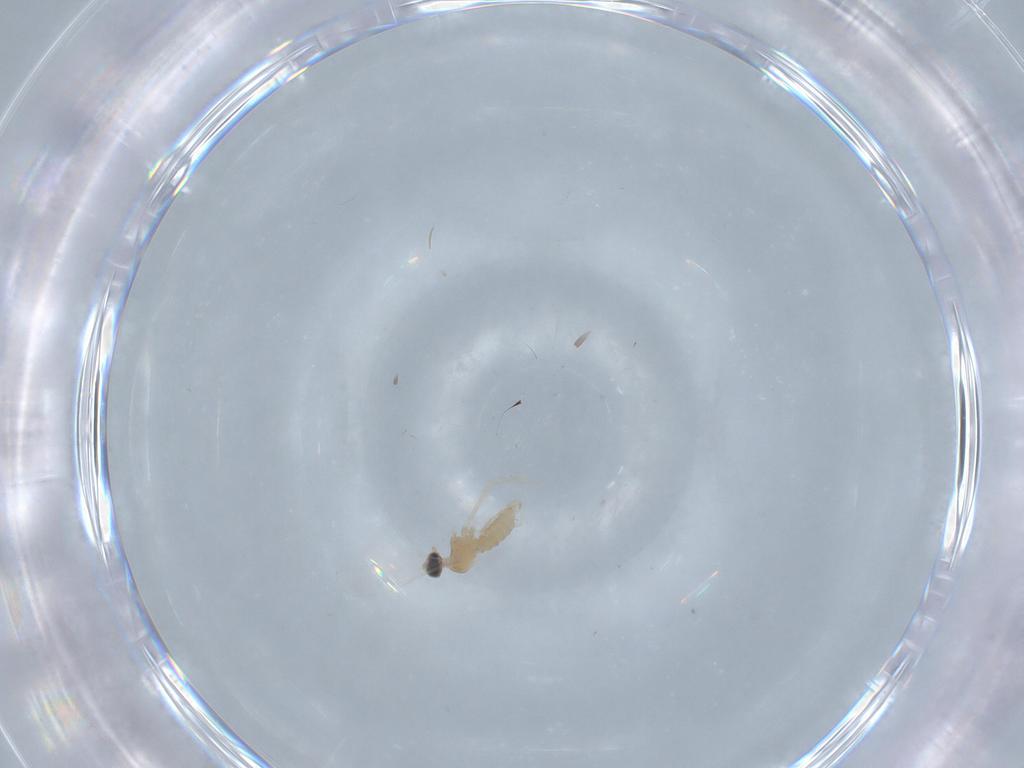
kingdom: Animalia
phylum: Arthropoda
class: Insecta
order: Diptera
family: Cecidomyiidae
